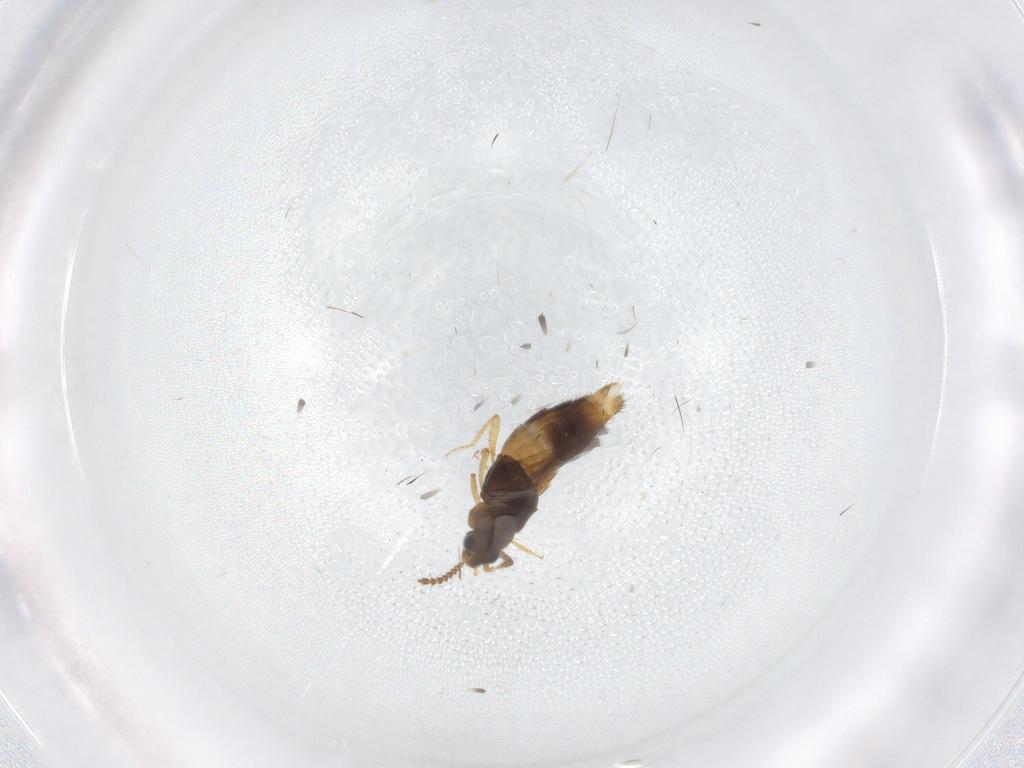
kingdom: Animalia
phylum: Arthropoda
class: Insecta
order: Coleoptera
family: Staphylinidae
